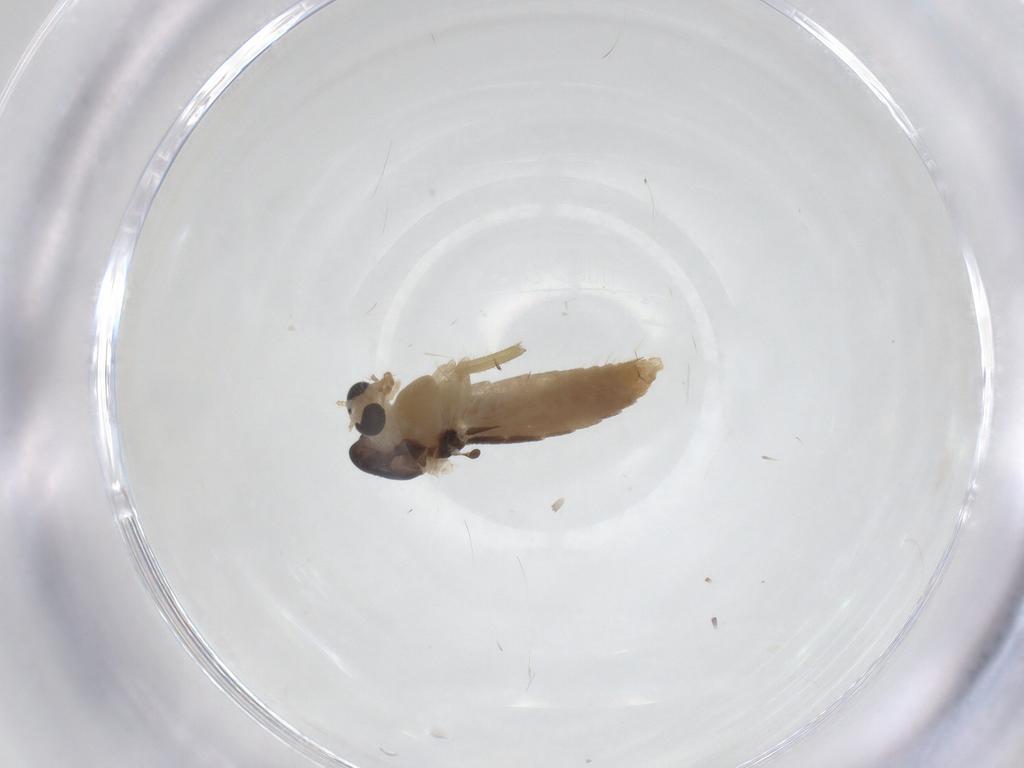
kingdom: Animalia
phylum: Arthropoda
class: Insecta
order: Diptera
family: Chironomidae
